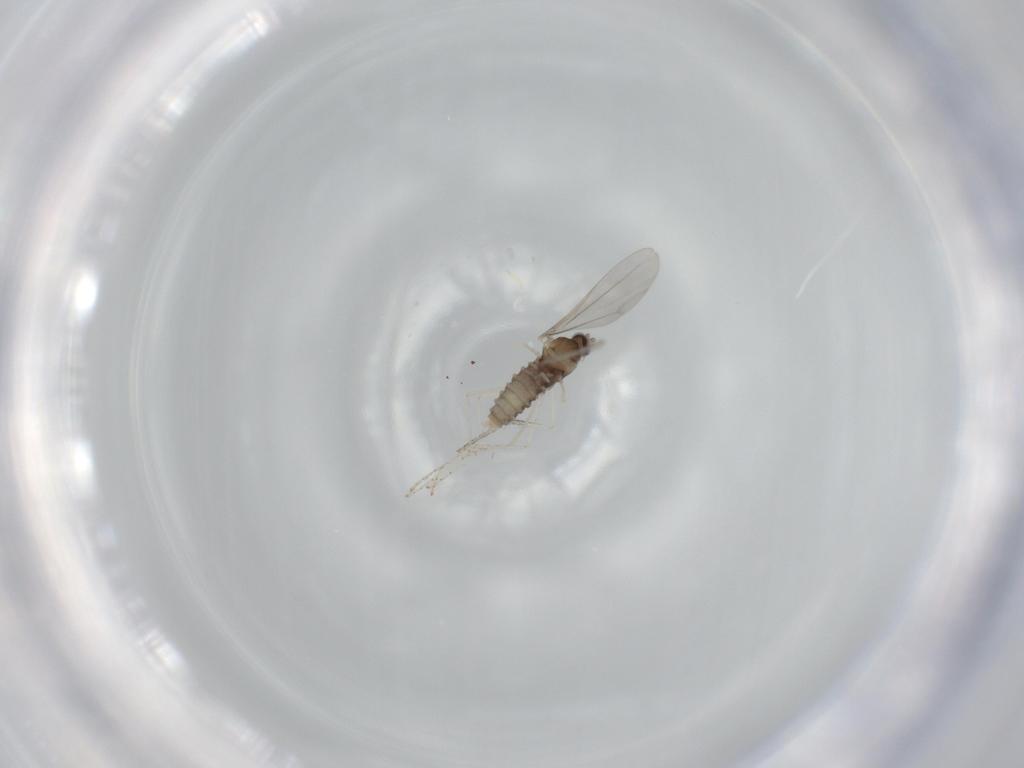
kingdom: Animalia
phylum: Arthropoda
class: Insecta
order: Diptera
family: Cecidomyiidae
